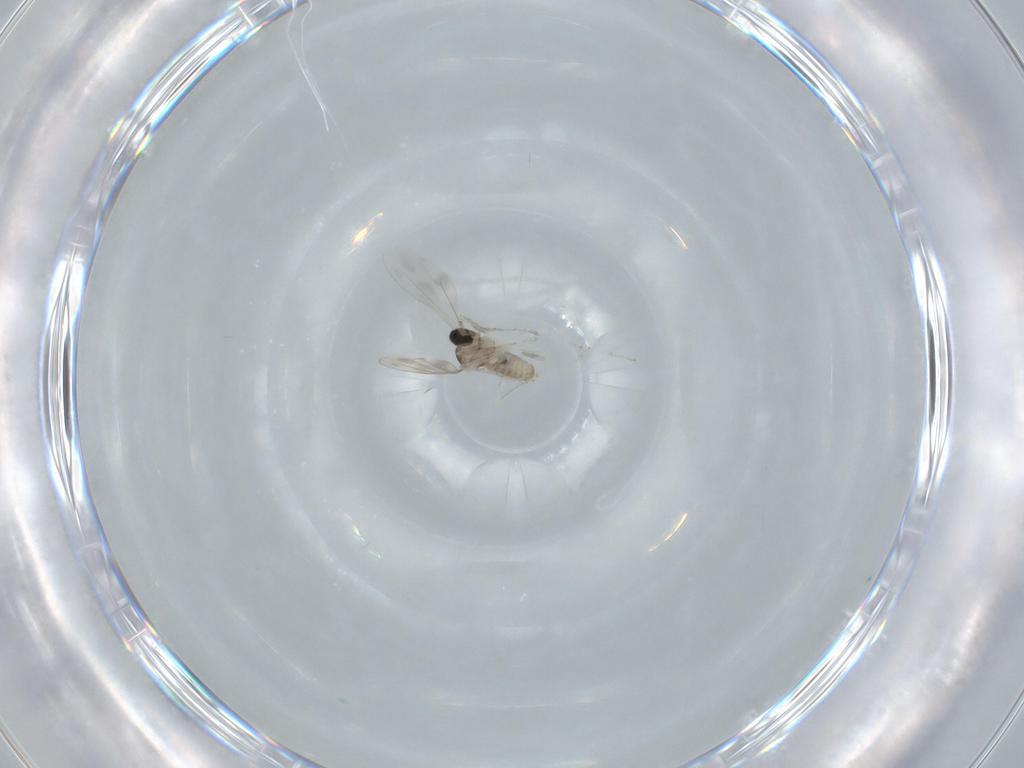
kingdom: Animalia
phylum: Arthropoda
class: Insecta
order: Diptera
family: Cecidomyiidae
